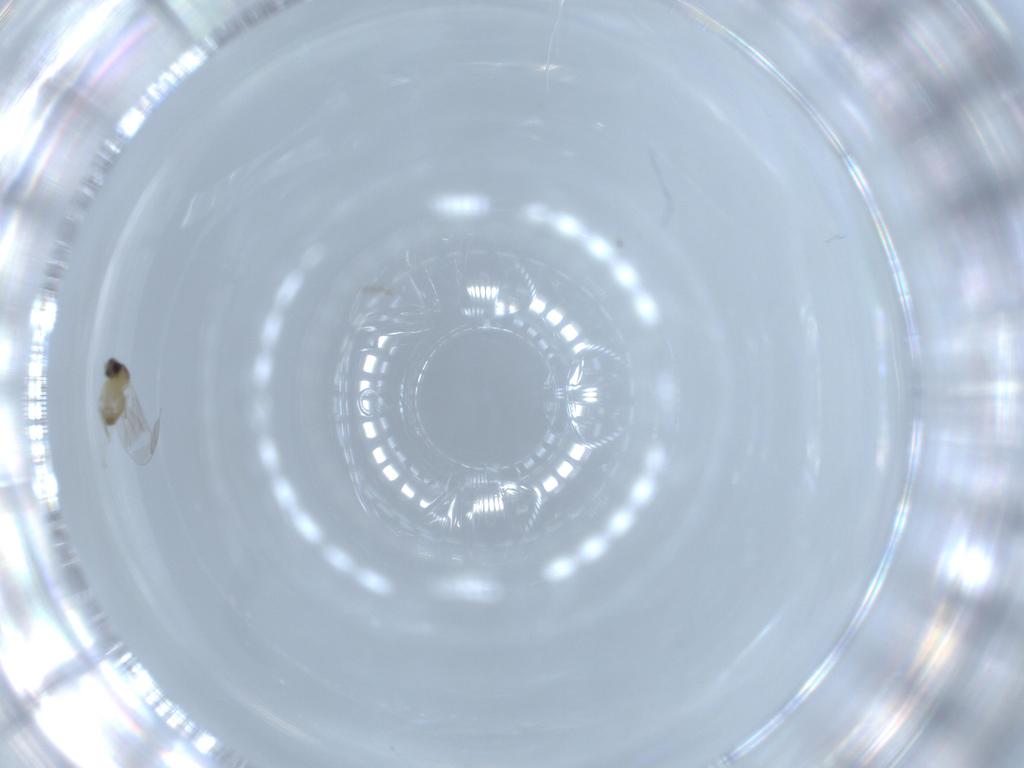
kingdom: Animalia
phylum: Arthropoda
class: Insecta
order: Diptera
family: Cecidomyiidae
